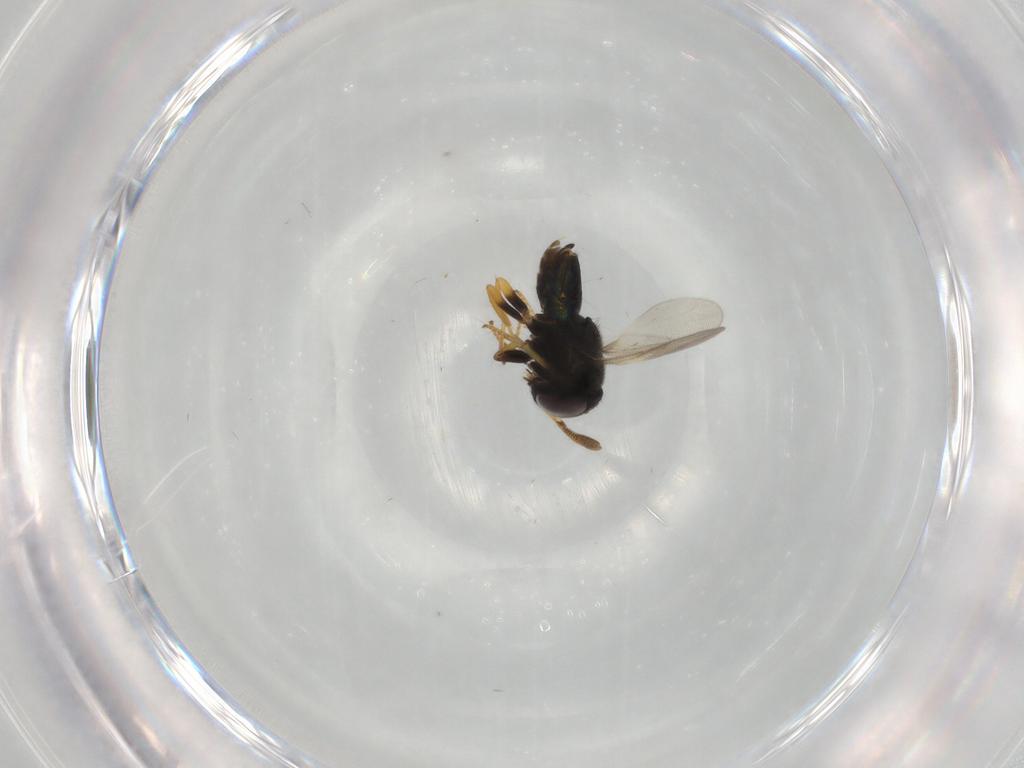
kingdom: Animalia
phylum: Arthropoda
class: Insecta
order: Hymenoptera
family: Encyrtidae
